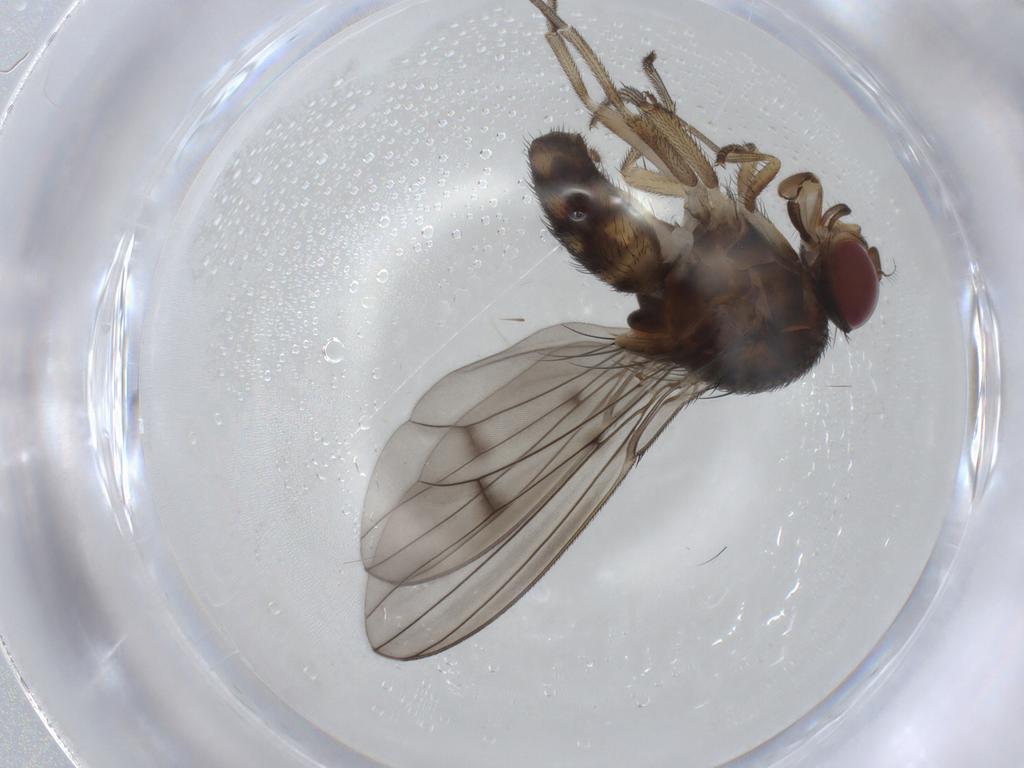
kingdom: Animalia
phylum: Arthropoda
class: Insecta
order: Diptera
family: Curtonotidae
